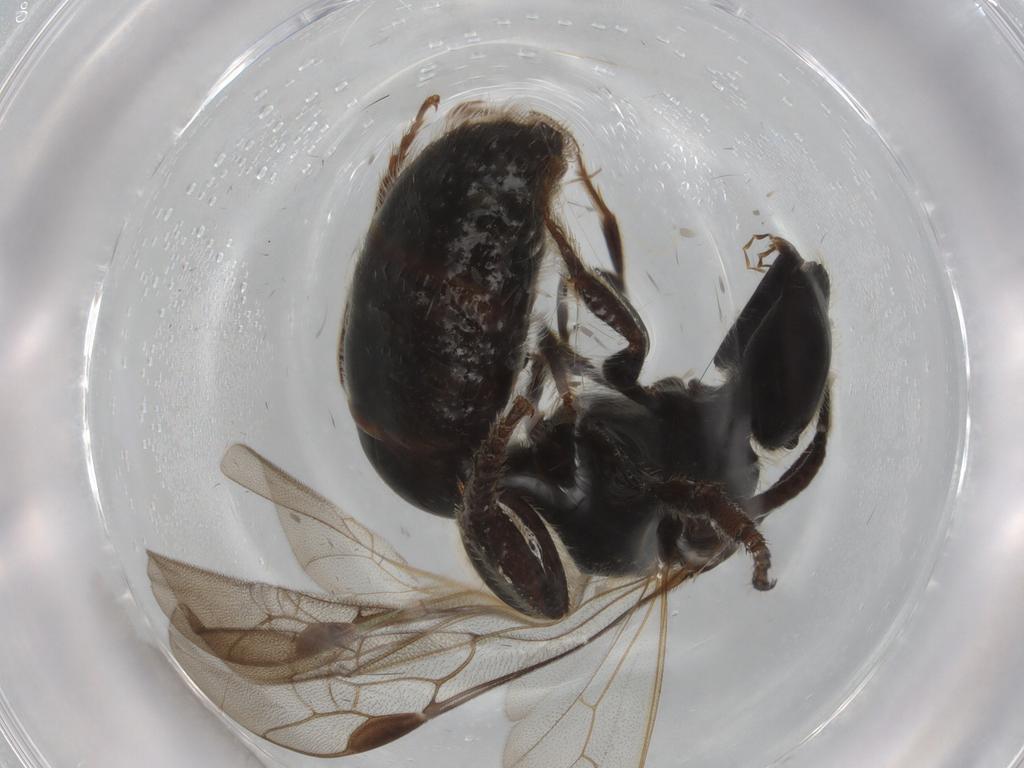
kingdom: Animalia
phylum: Arthropoda
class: Insecta
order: Hymenoptera
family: Halictidae
